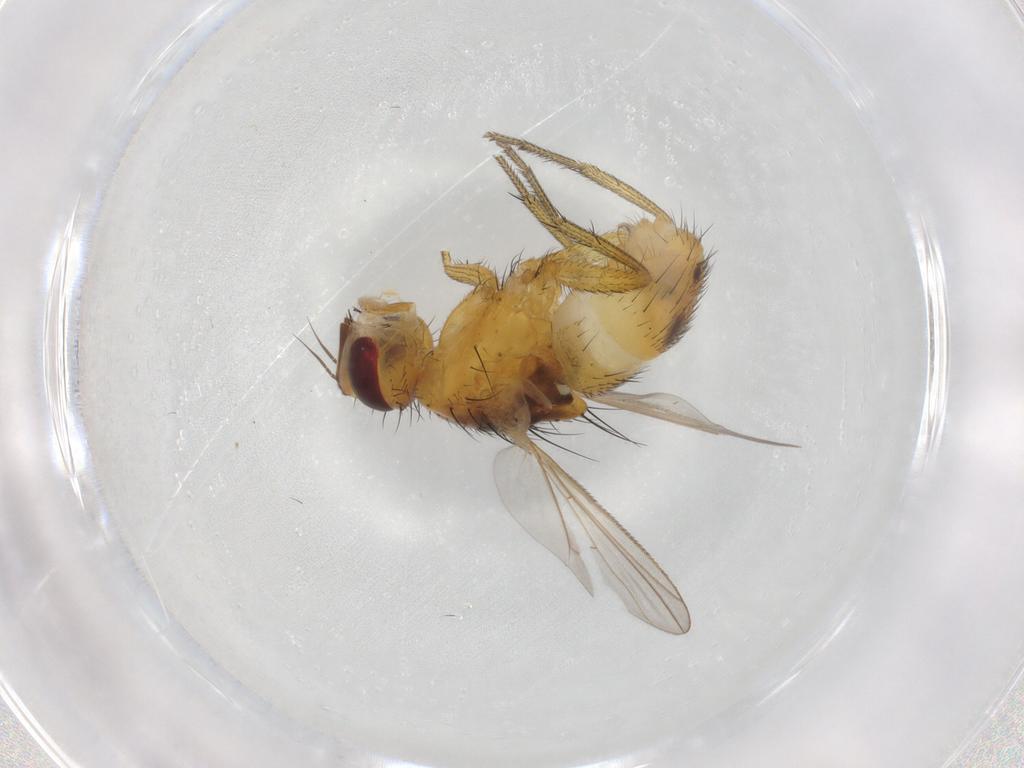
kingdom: Animalia
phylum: Arthropoda
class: Insecta
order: Diptera
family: Muscidae
